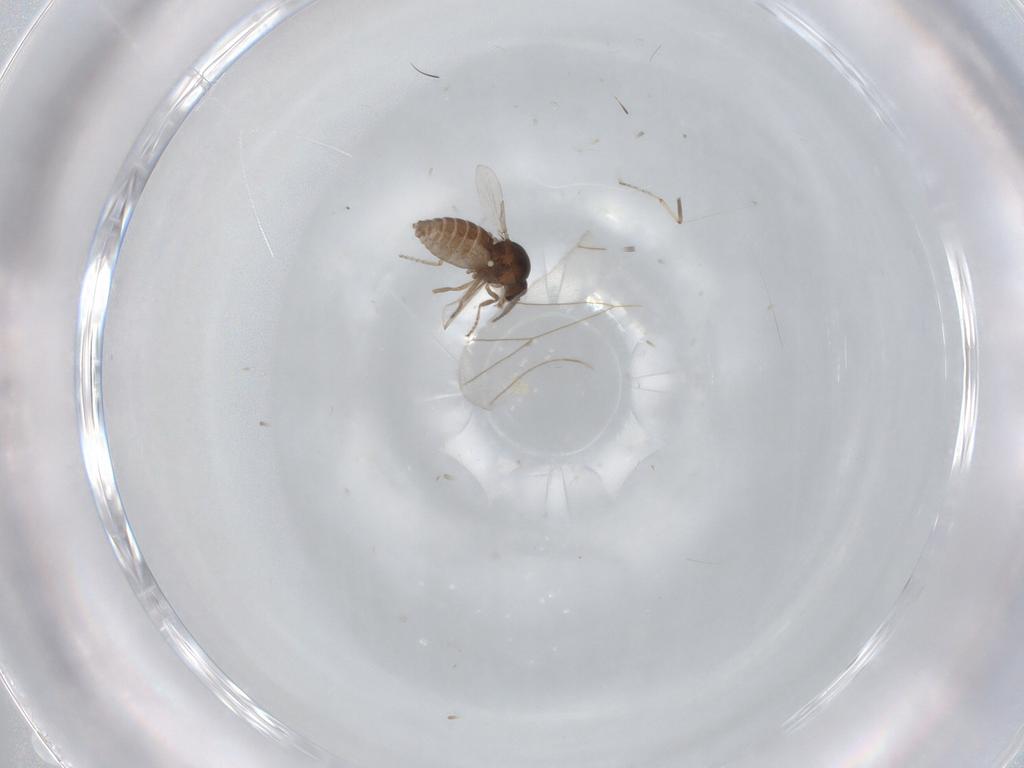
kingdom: Animalia
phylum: Arthropoda
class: Insecta
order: Diptera
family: Ceratopogonidae
